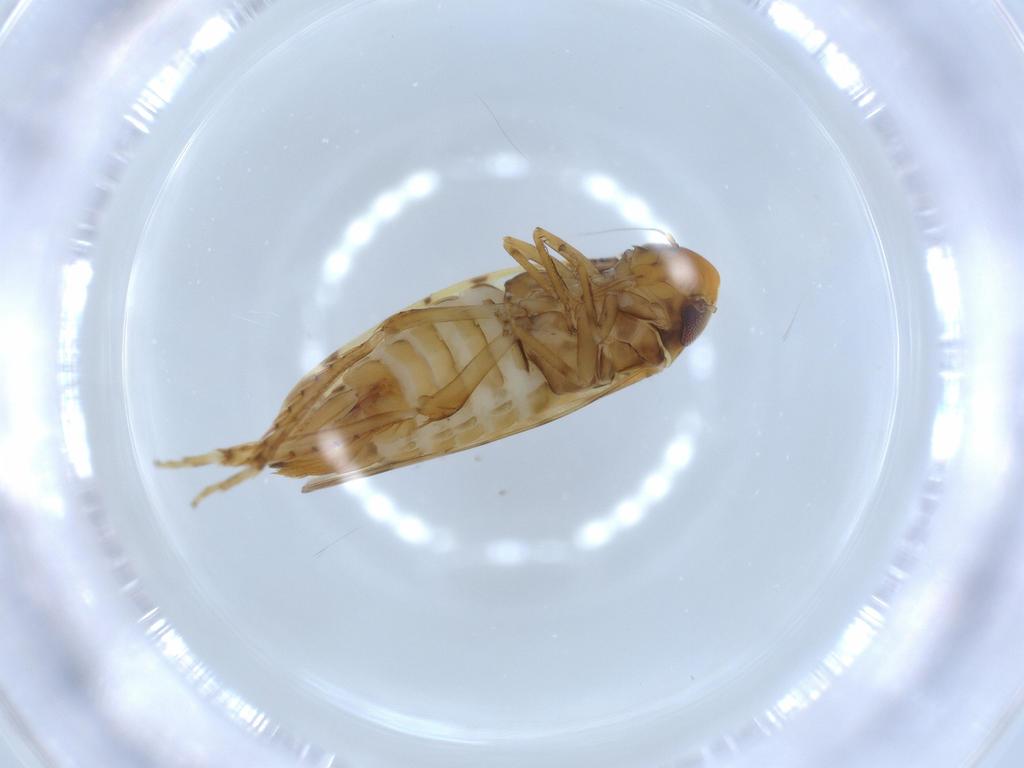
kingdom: Animalia
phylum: Arthropoda
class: Insecta
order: Hemiptera
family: Cicadellidae
